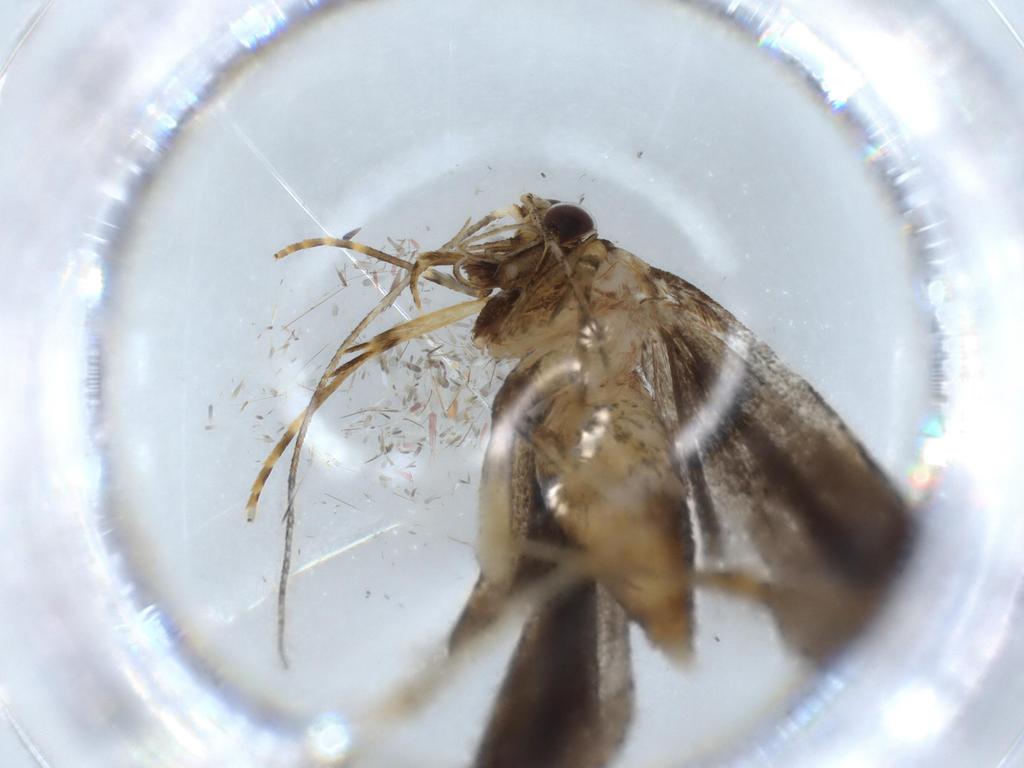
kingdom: Animalia
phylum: Arthropoda
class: Insecta
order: Lepidoptera
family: Autostichidae
